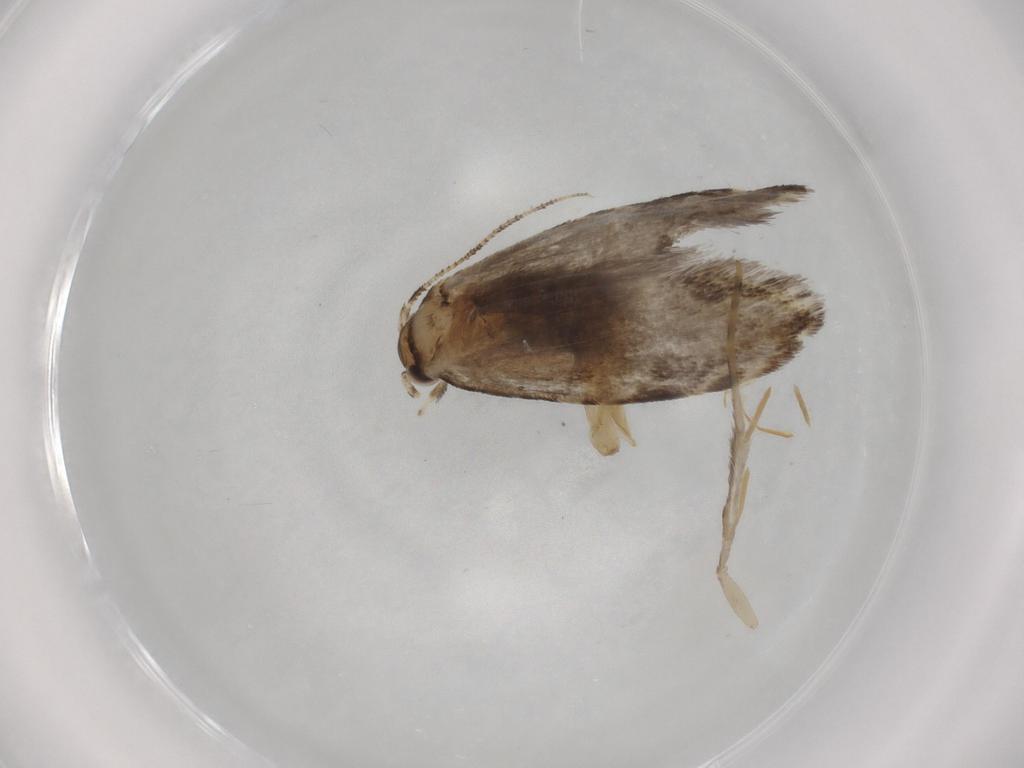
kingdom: Animalia
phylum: Arthropoda
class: Insecta
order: Lepidoptera
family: Tineidae
